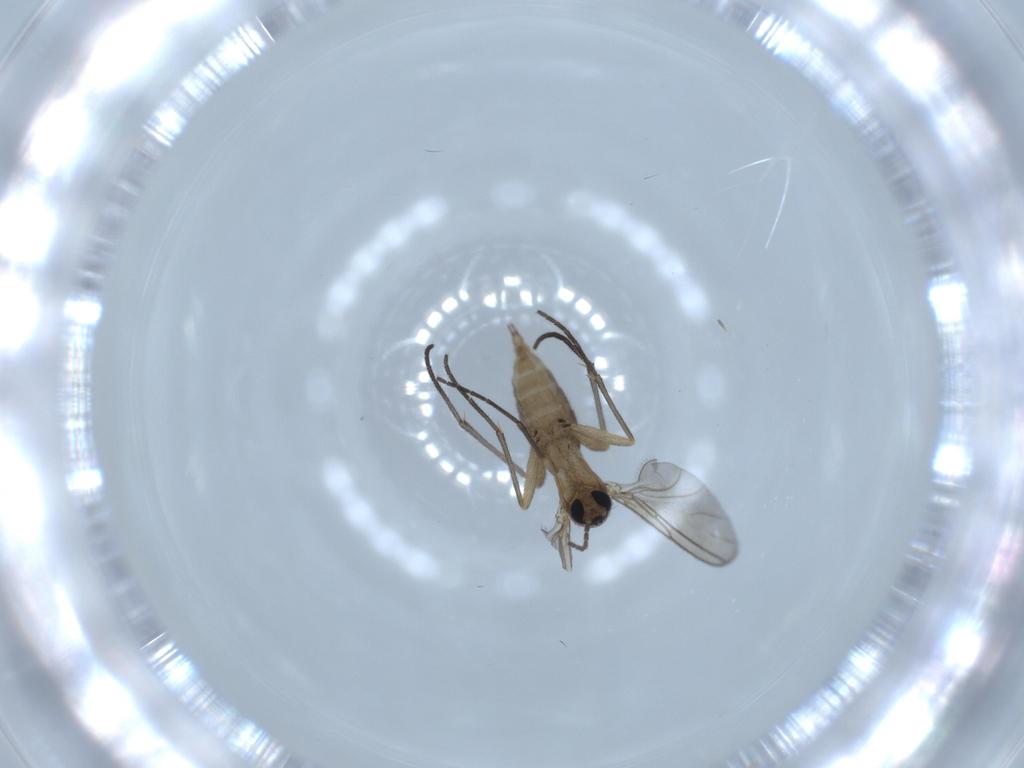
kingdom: Animalia
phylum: Arthropoda
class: Insecta
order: Diptera
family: Sciaridae
